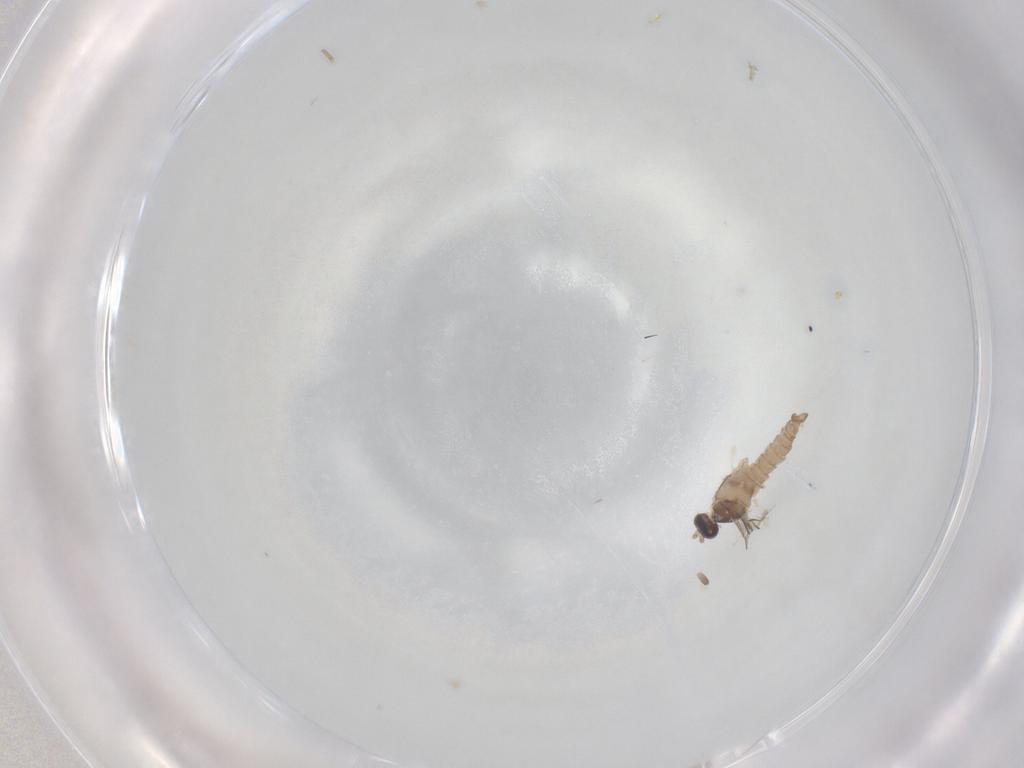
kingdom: Animalia
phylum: Arthropoda
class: Insecta
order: Diptera
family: Cecidomyiidae
